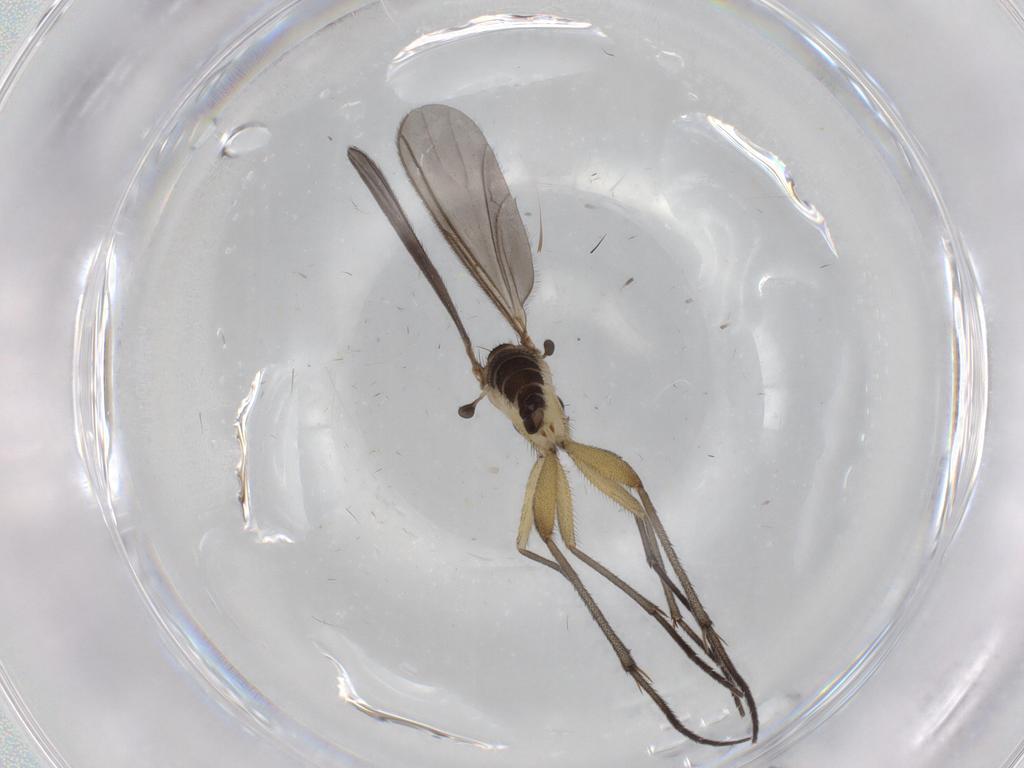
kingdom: Animalia
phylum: Arthropoda
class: Insecta
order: Diptera
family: Sciaridae
